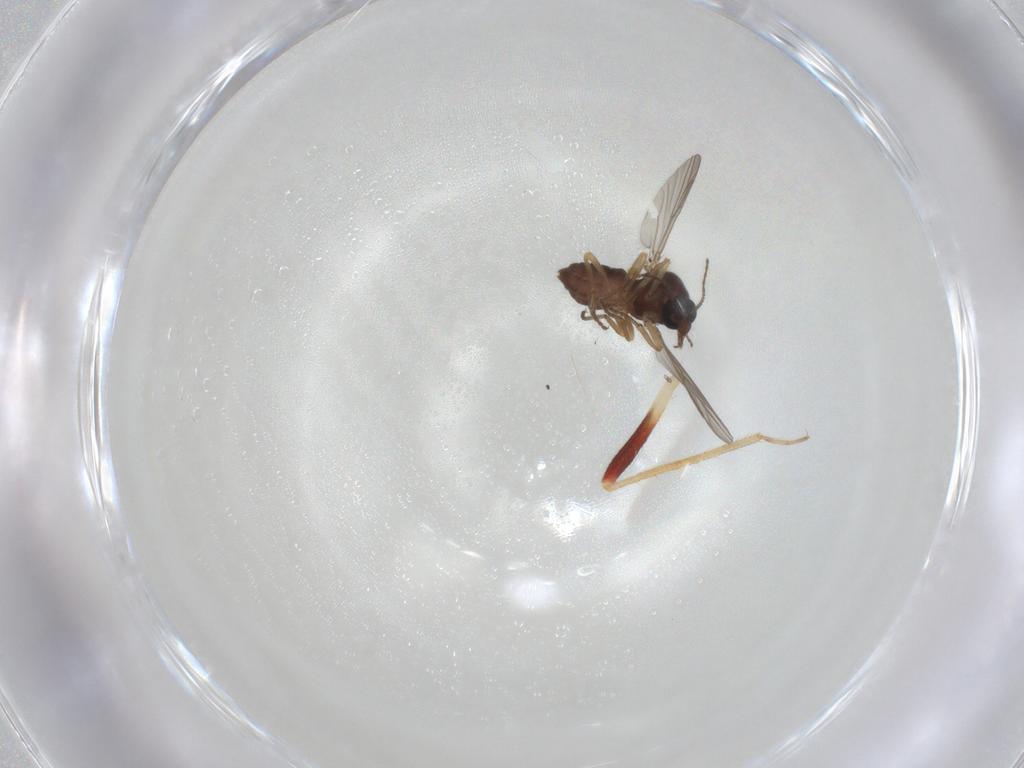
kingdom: Animalia
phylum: Arthropoda
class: Insecta
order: Diptera
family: Ceratopogonidae
